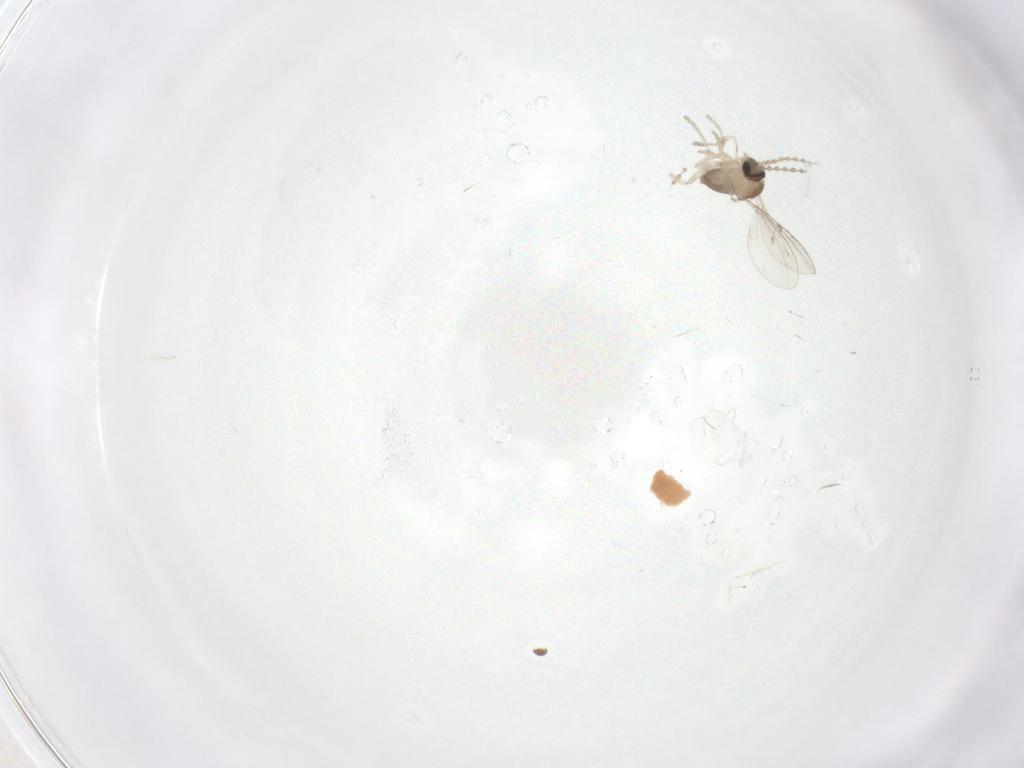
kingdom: Animalia
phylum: Arthropoda
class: Insecta
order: Diptera
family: Cecidomyiidae
